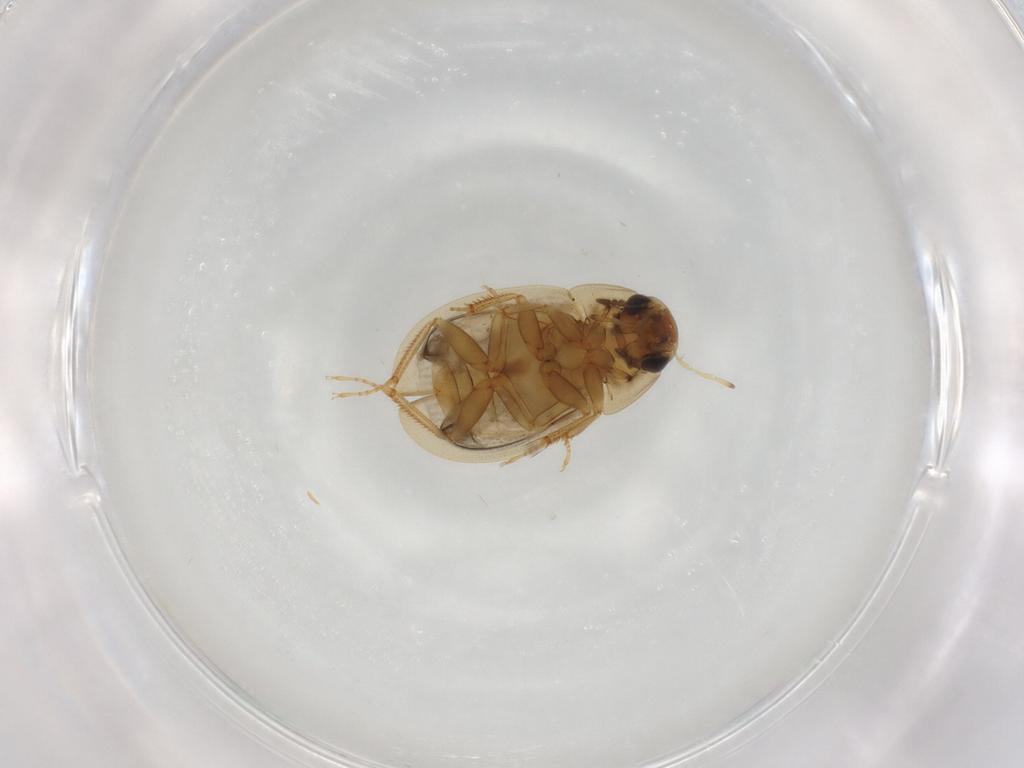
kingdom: Animalia
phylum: Arthropoda
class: Insecta
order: Coleoptera
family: Hydrophilidae
